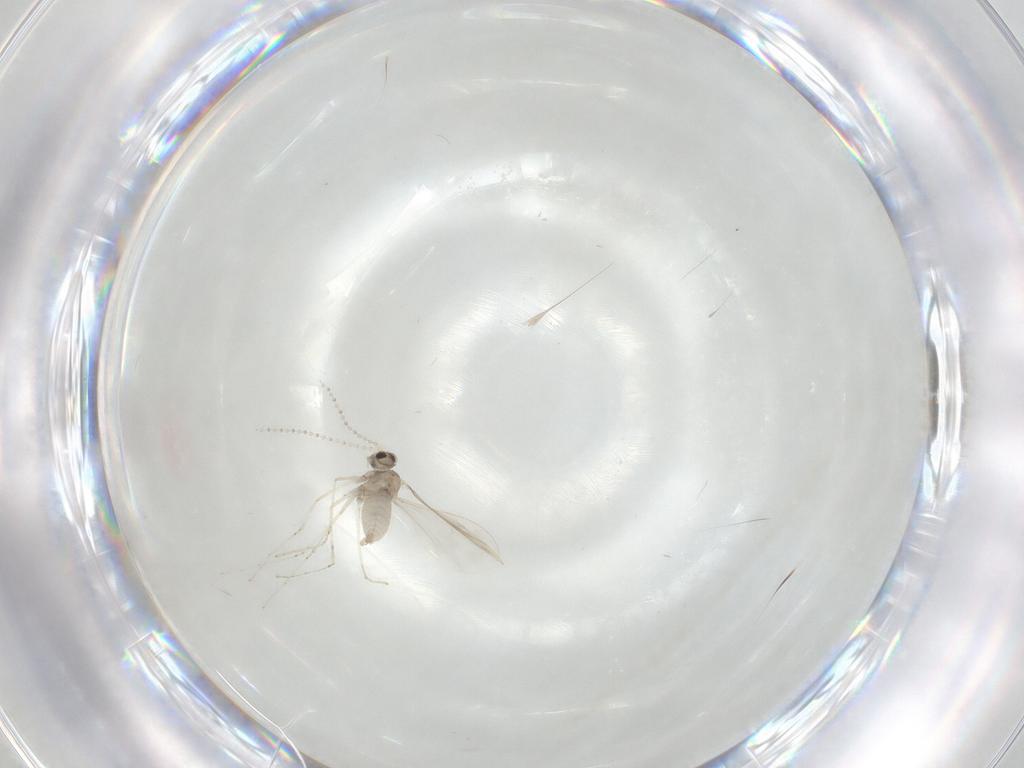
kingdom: Animalia
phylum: Arthropoda
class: Insecta
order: Diptera
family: Cecidomyiidae
